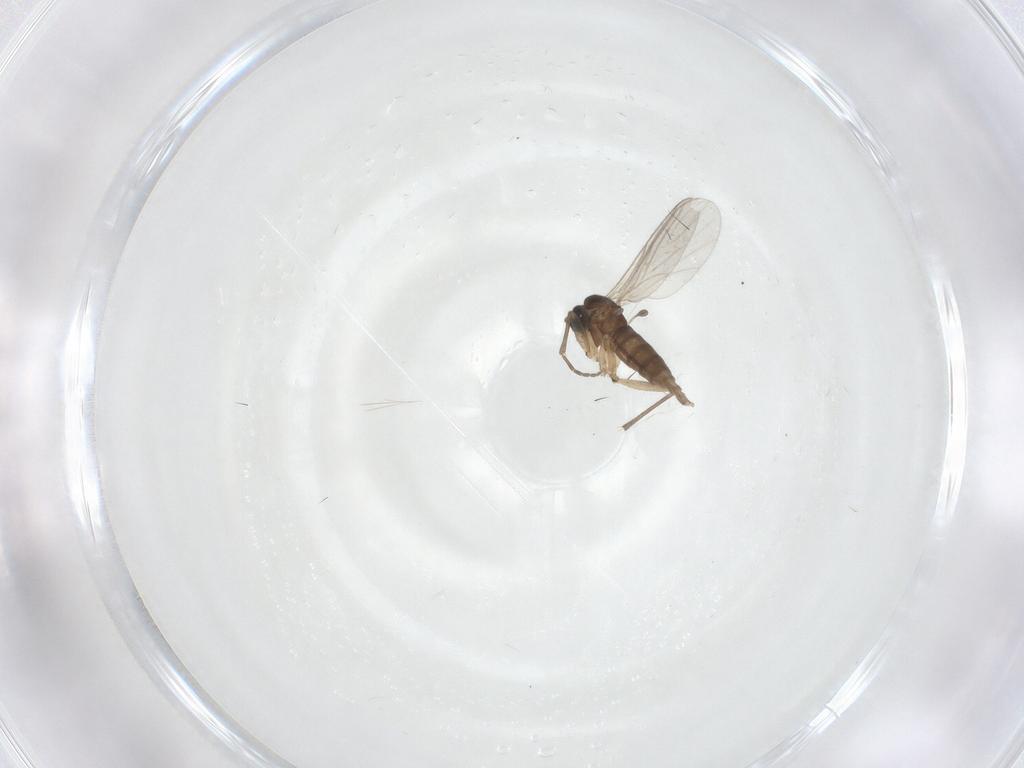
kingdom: Animalia
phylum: Arthropoda
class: Insecta
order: Diptera
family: Sciaridae
